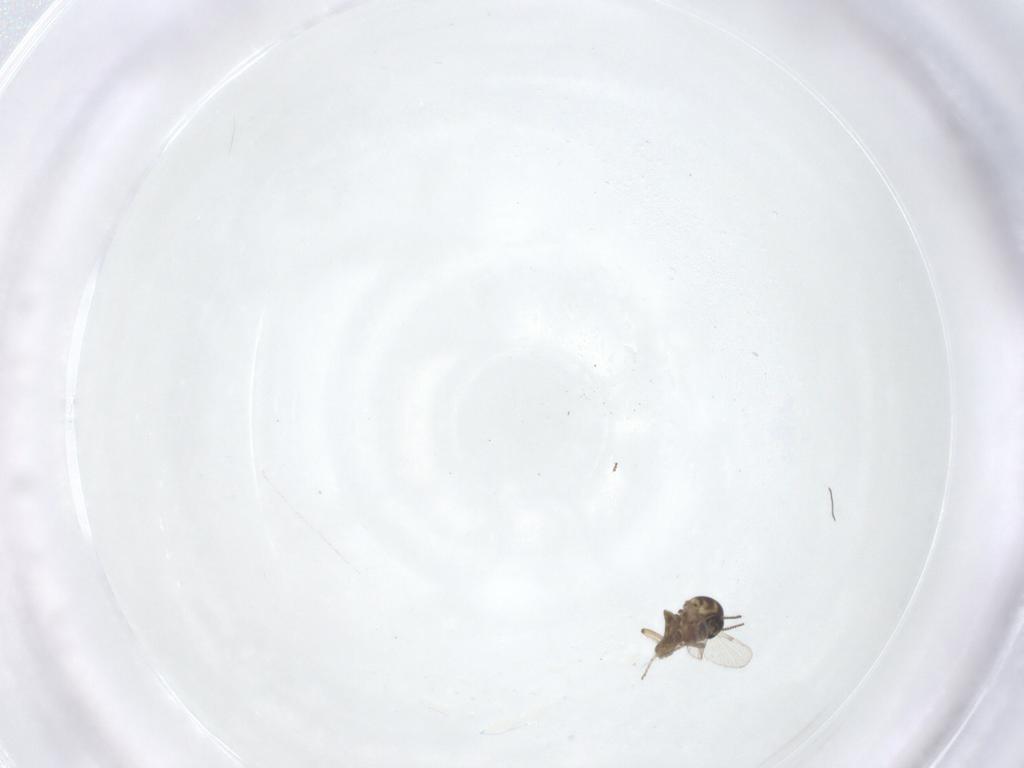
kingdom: Animalia
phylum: Arthropoda
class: Insecta
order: Diptera
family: Ceratopogonidae
